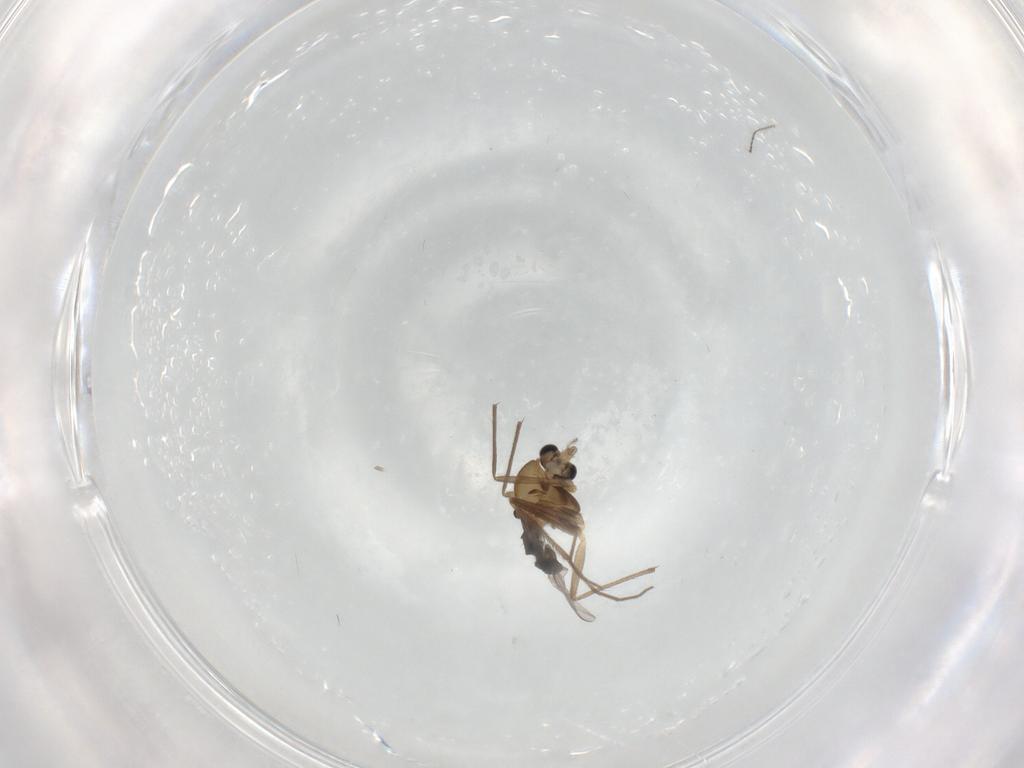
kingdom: Animalia
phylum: Arthropoda
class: Insecta
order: Diptera
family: Chironomidae
